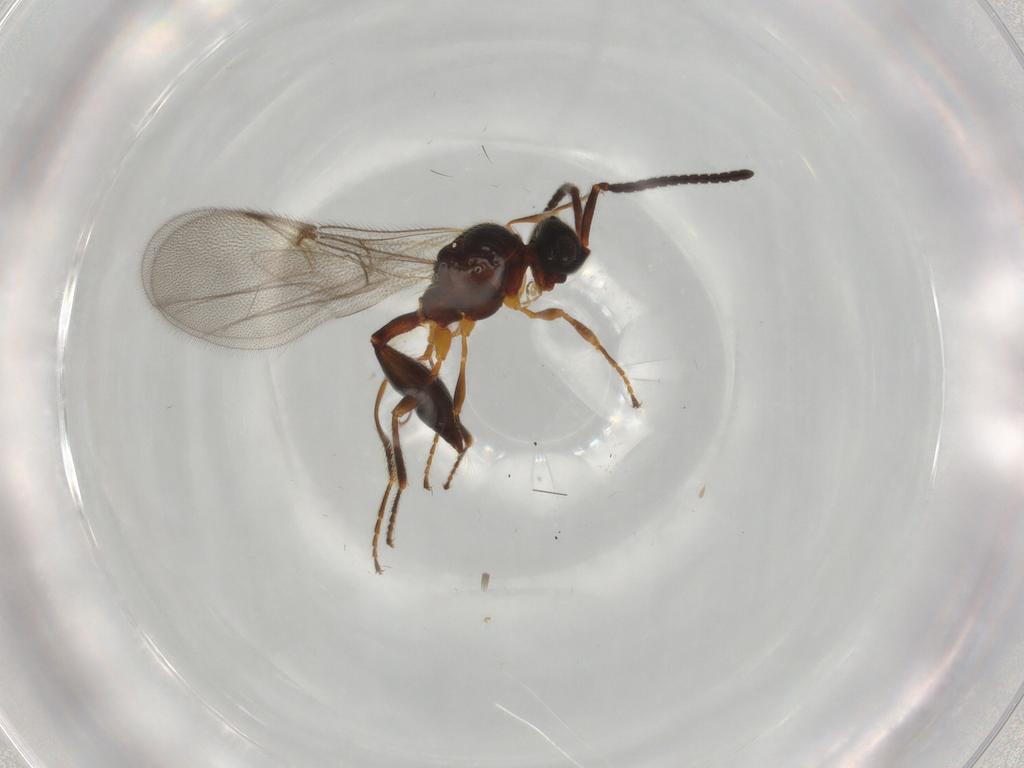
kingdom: Animalia
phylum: Arthropoda
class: Insecta
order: Hymenoptera
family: Diapriidae
